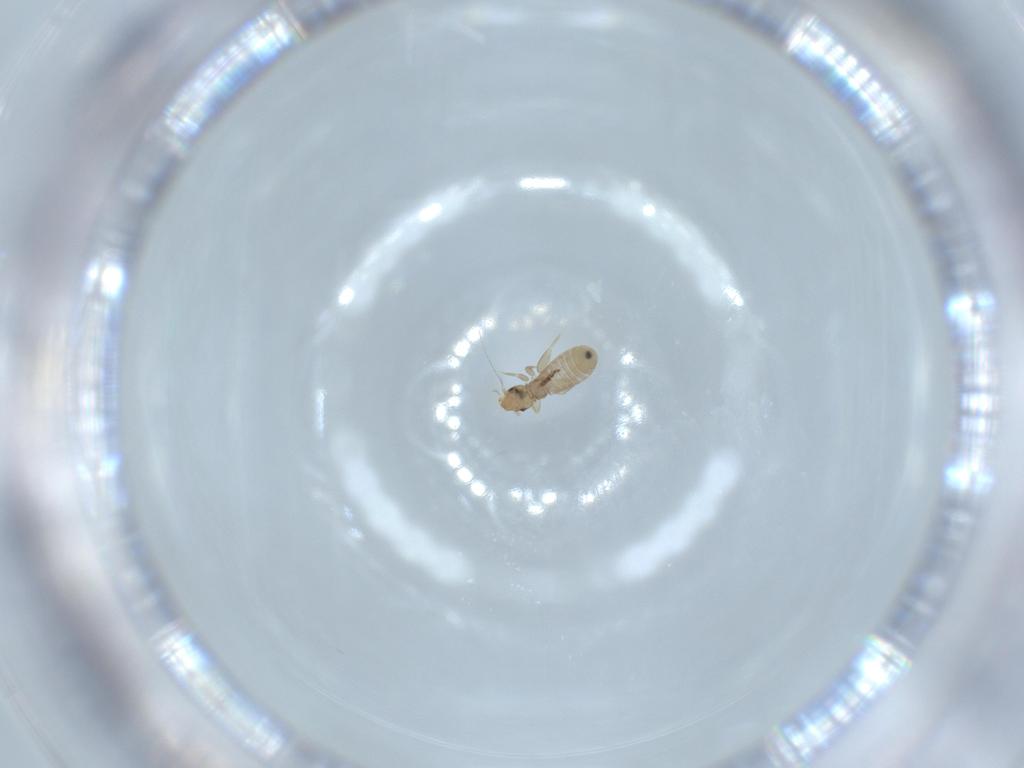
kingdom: Animalia
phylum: Arthropoda
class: Insecta
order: Psocodea
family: Liposcelididae
